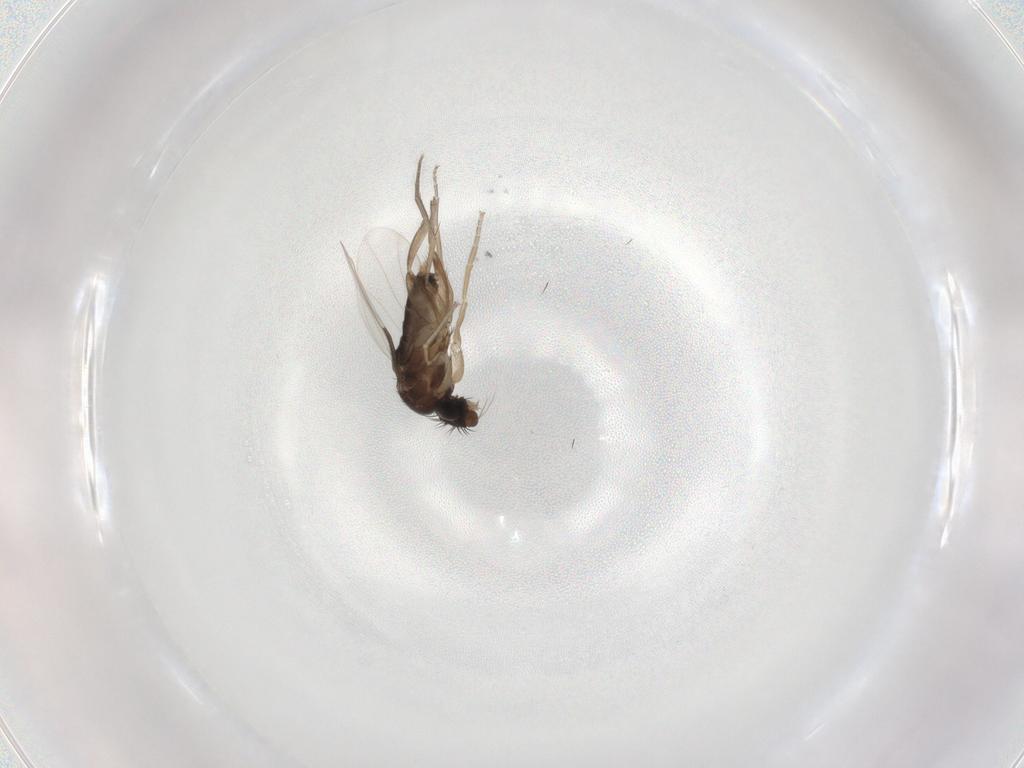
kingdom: Animalia
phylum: Arthropoda
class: Insecta
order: Diptera
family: Phoridae
